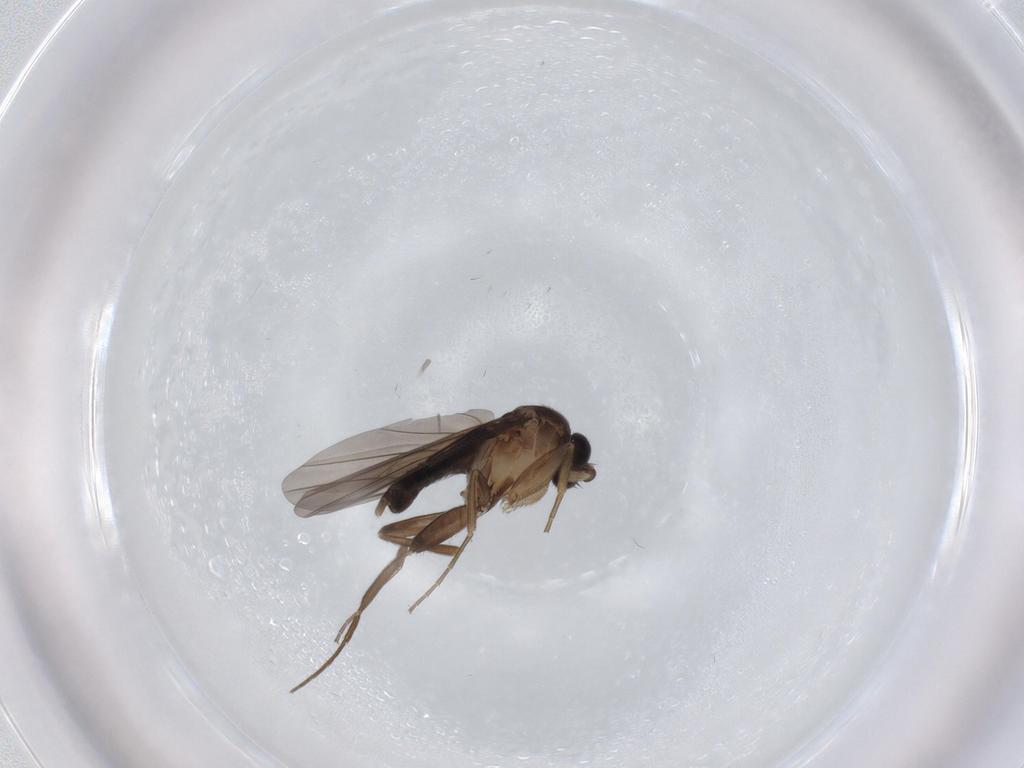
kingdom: Animalia
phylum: Arthropoda
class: Insecta
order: Diptera
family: Phoridae
